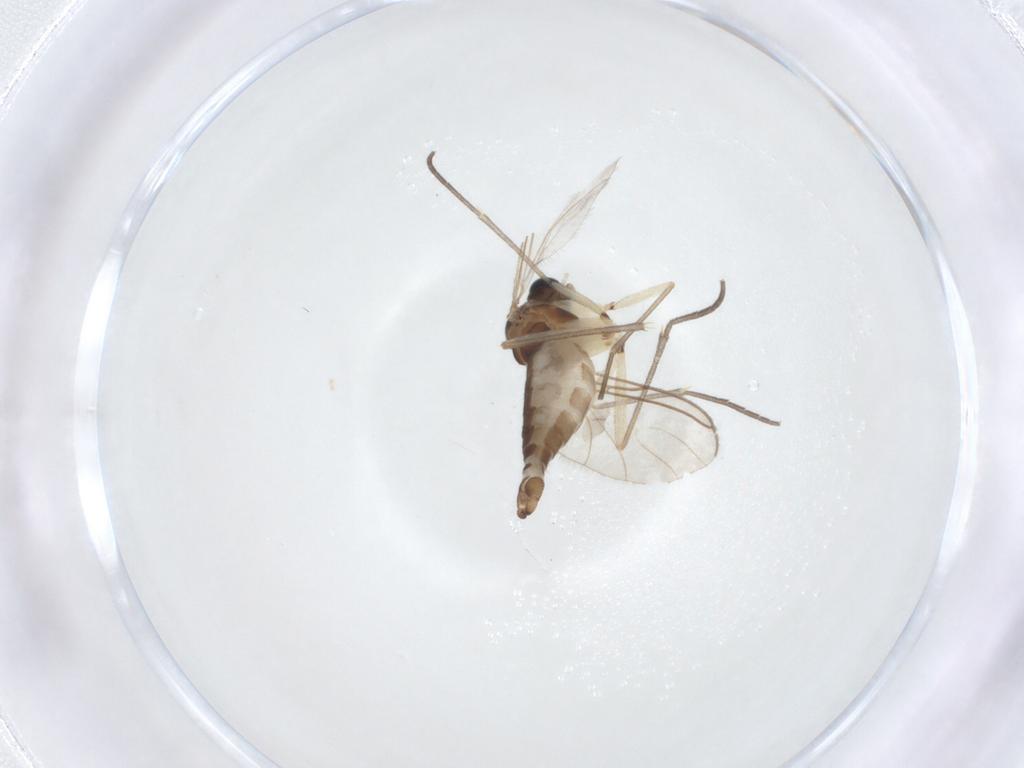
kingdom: Animalia
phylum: Arthropoda
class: Insecta
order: Diptera
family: Sciaridae
